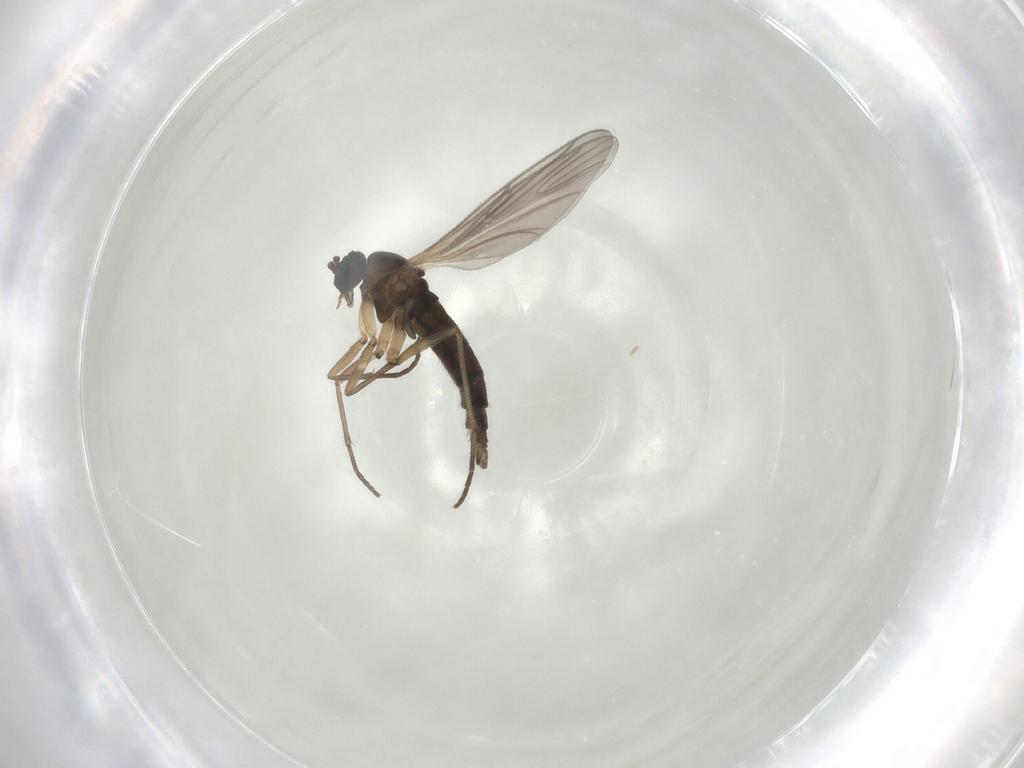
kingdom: Animalia
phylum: Arthropoda
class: Insecta
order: Diptera
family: Sciaridae
